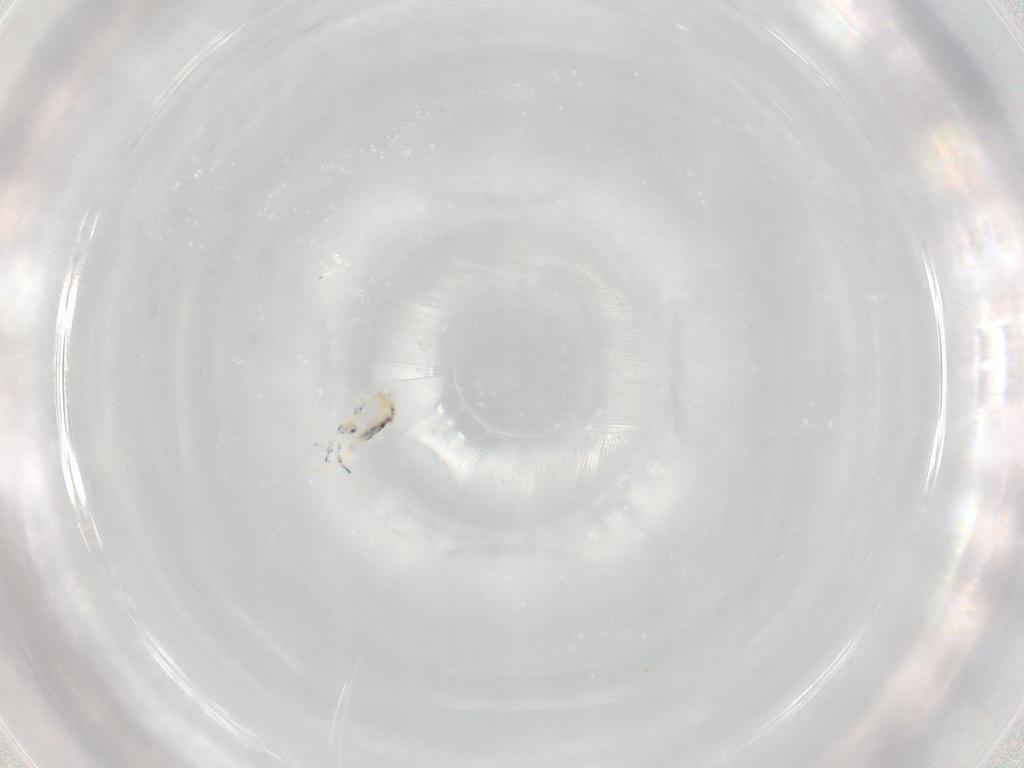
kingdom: Animalia
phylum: Arthropoda
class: Collembola
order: Entomobryomorpha
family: Entomobryidae
